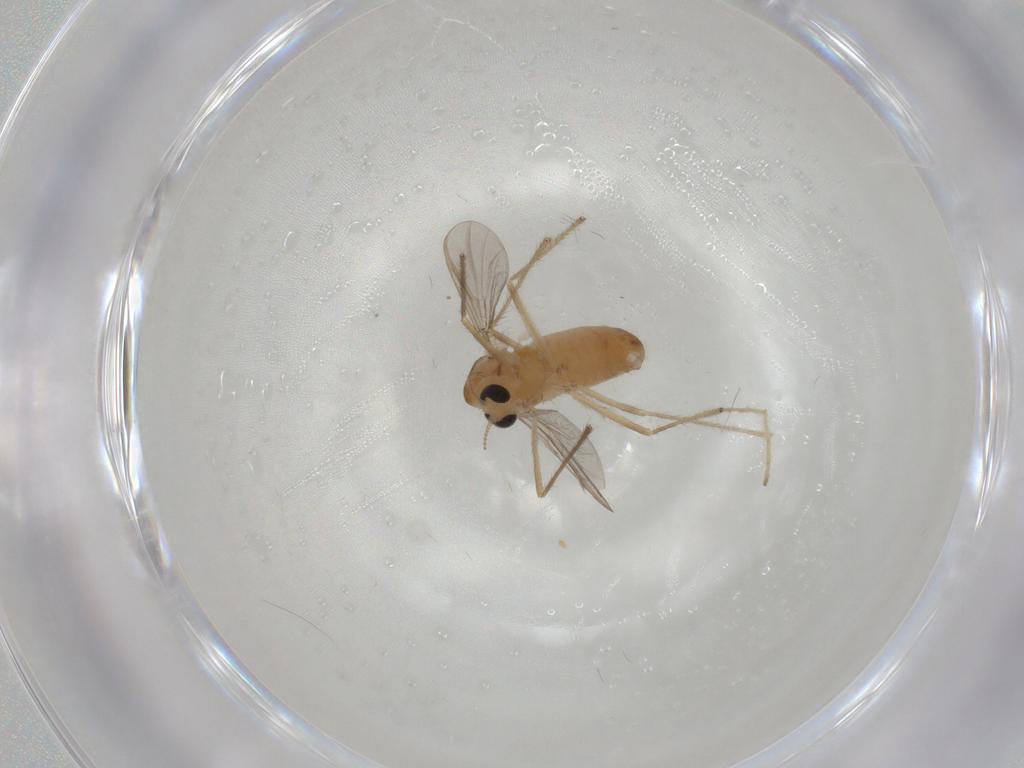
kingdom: Animalia
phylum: Arthropoda
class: Insecta
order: Diptera
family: Chironomidae
